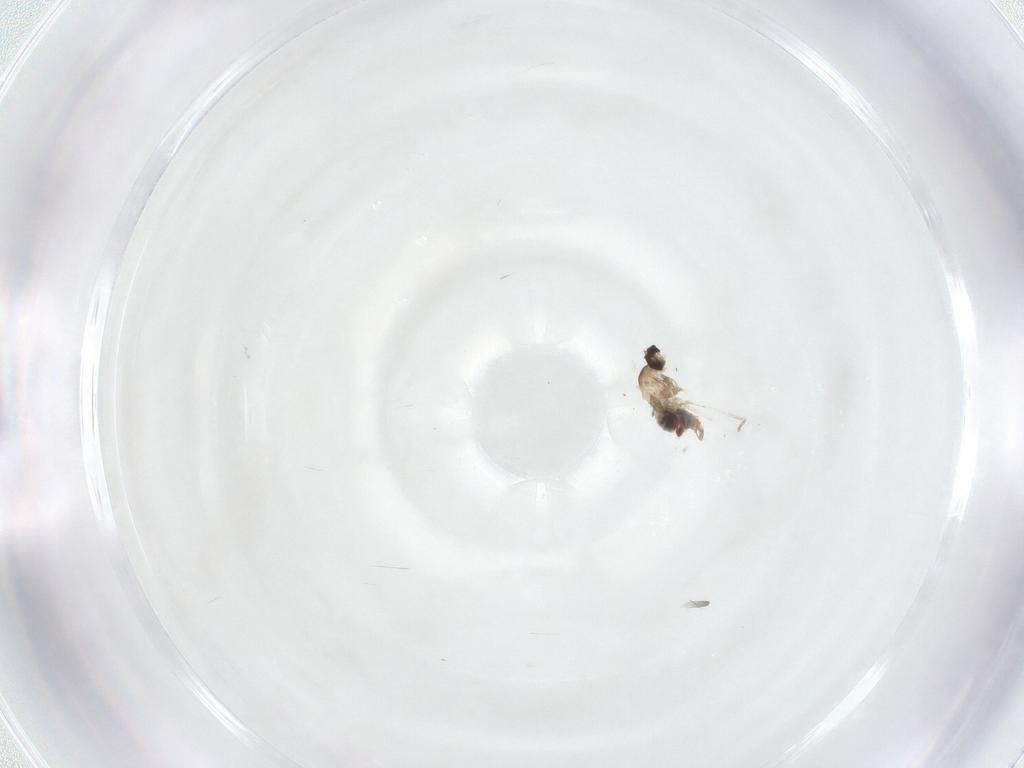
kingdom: Animalia
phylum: Arthropoda
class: Insecta
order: Diptera
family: Cecidomyiidae
